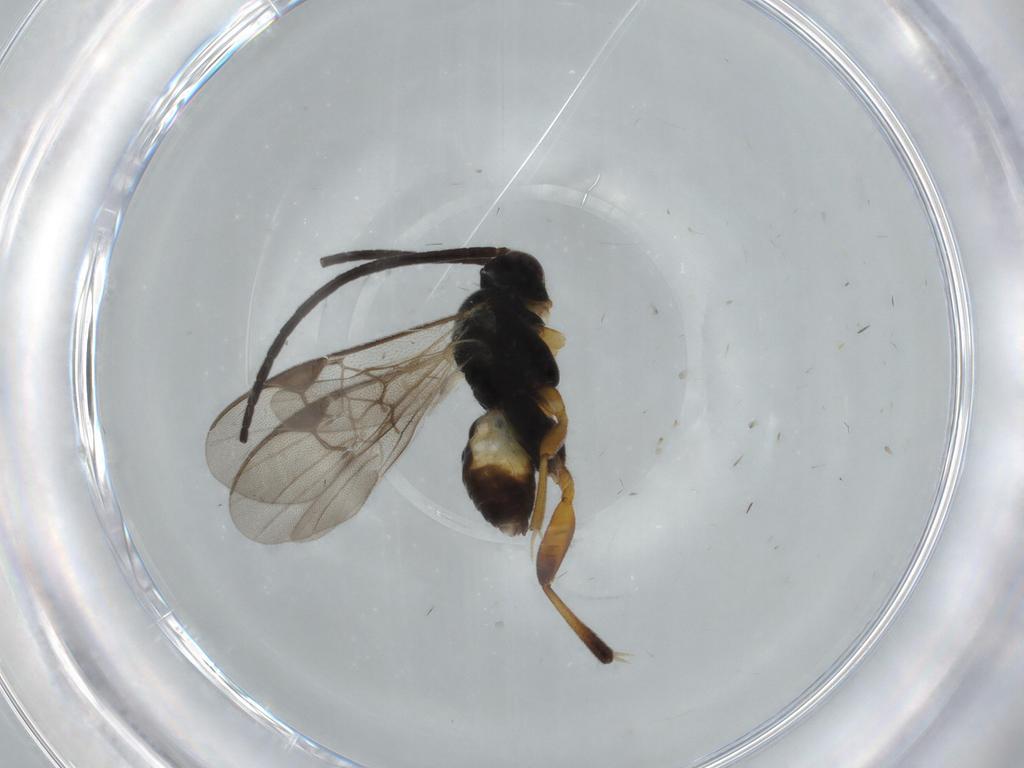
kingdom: Animalia
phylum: Arthropoda
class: Insecta
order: Hymenoptera
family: Braconidae
